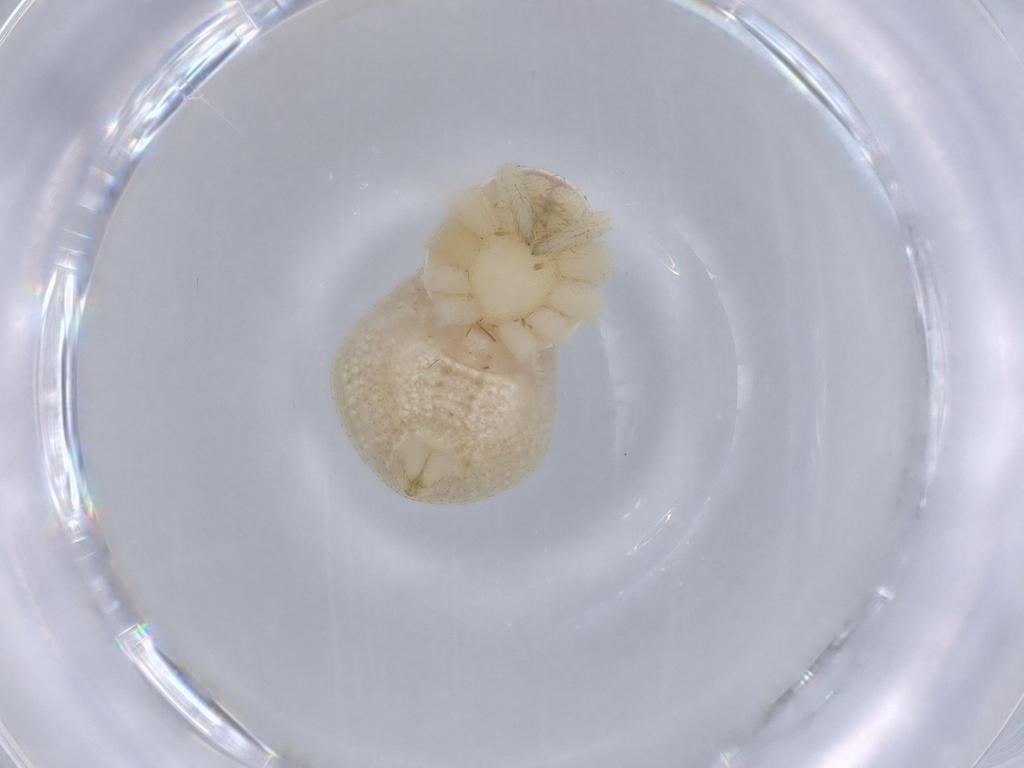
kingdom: Animalia
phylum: Arthropoda
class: Arachnida
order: Araneae
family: Thomisidae
